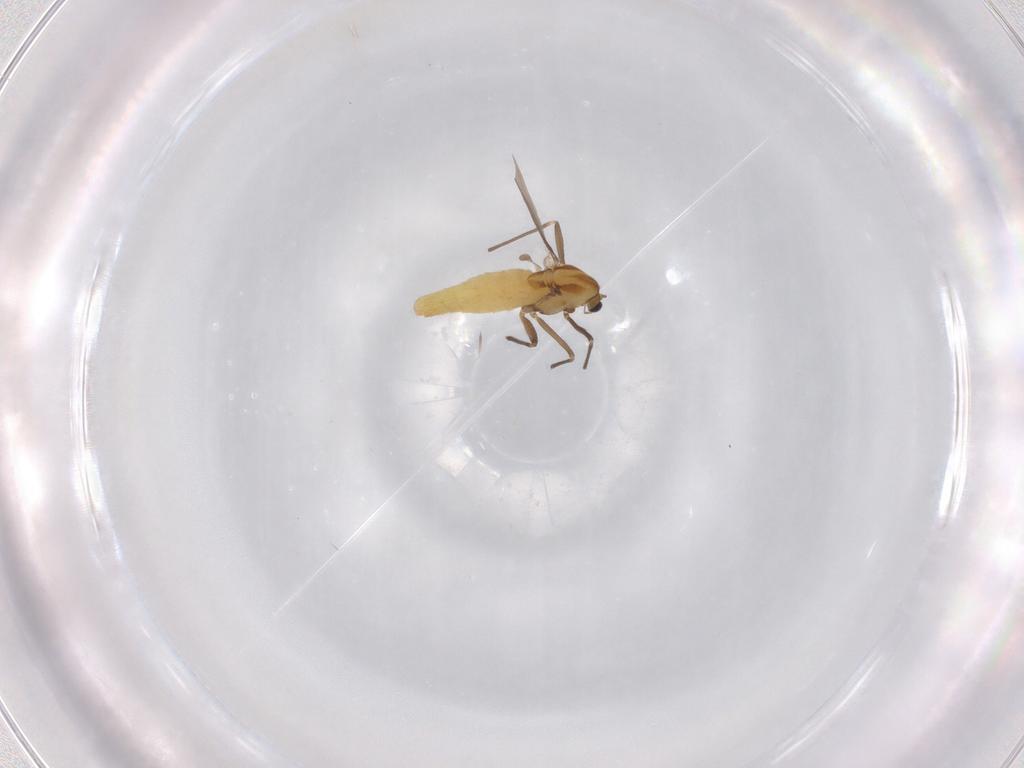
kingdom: Animalia
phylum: Arthropoda
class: Insecta
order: Diptera
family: Chironomidae
